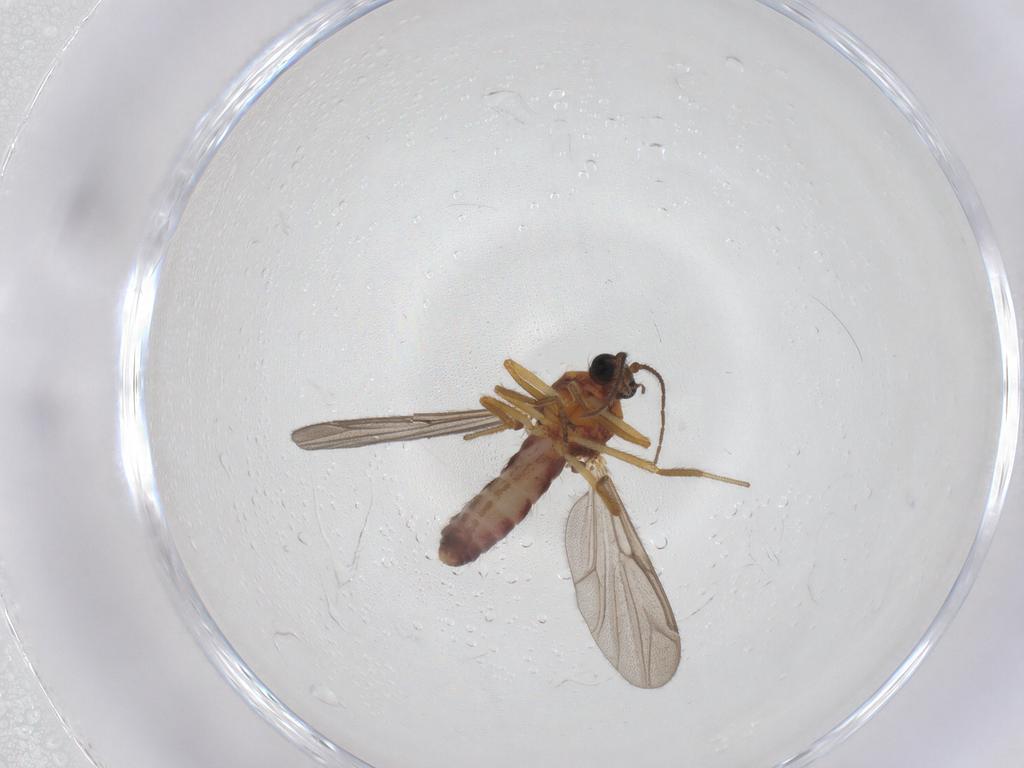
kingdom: Animalia
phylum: Arthropoda
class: Insecta
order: Diptera
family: Ceratopogonidae
